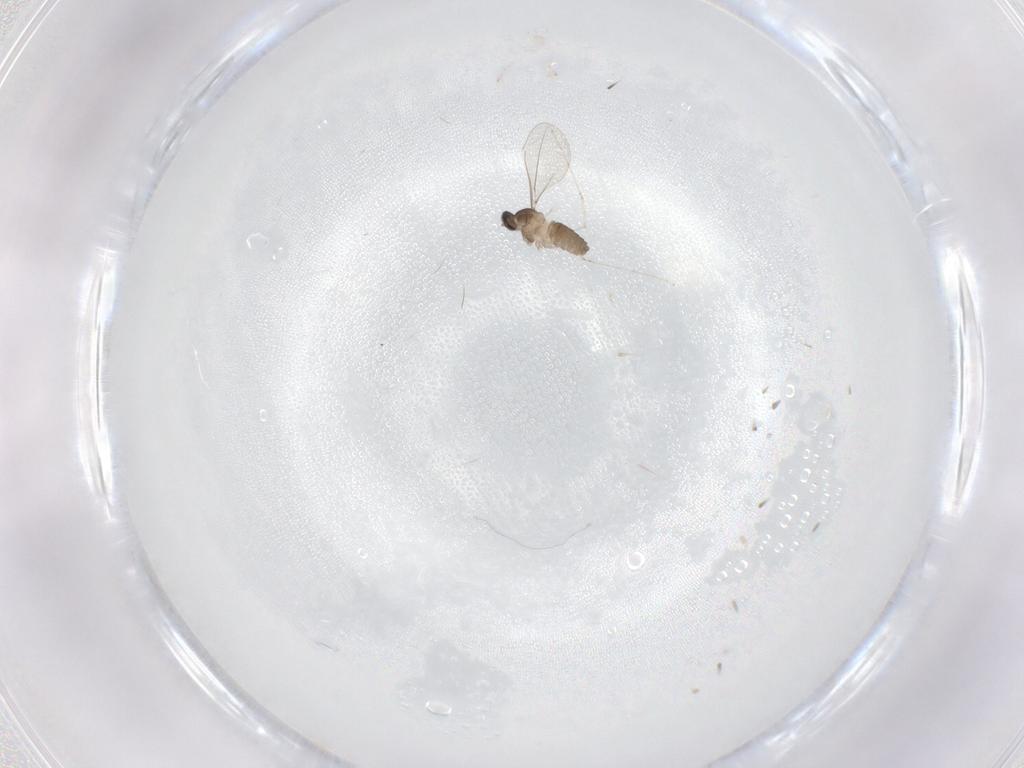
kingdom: Animalia
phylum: Arthropoda
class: Insecta
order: Diptera
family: Cecidomyiidae
